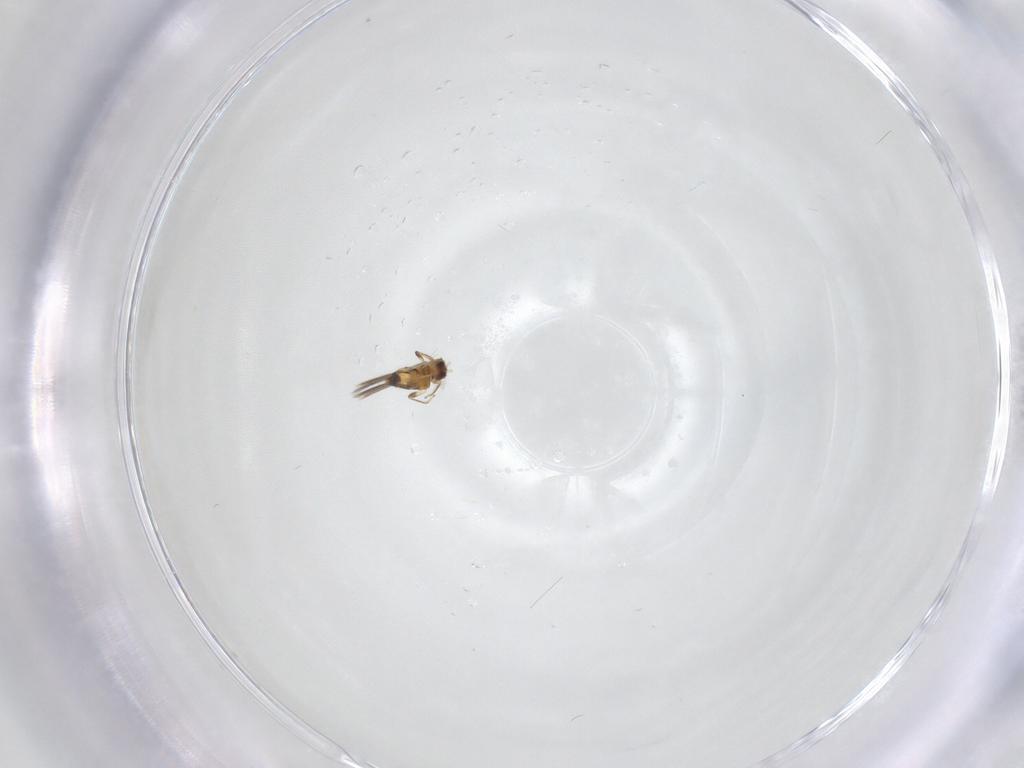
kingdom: Animalia
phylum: Arthropoda
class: Insecta
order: Thysanoptera
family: Thripidae
